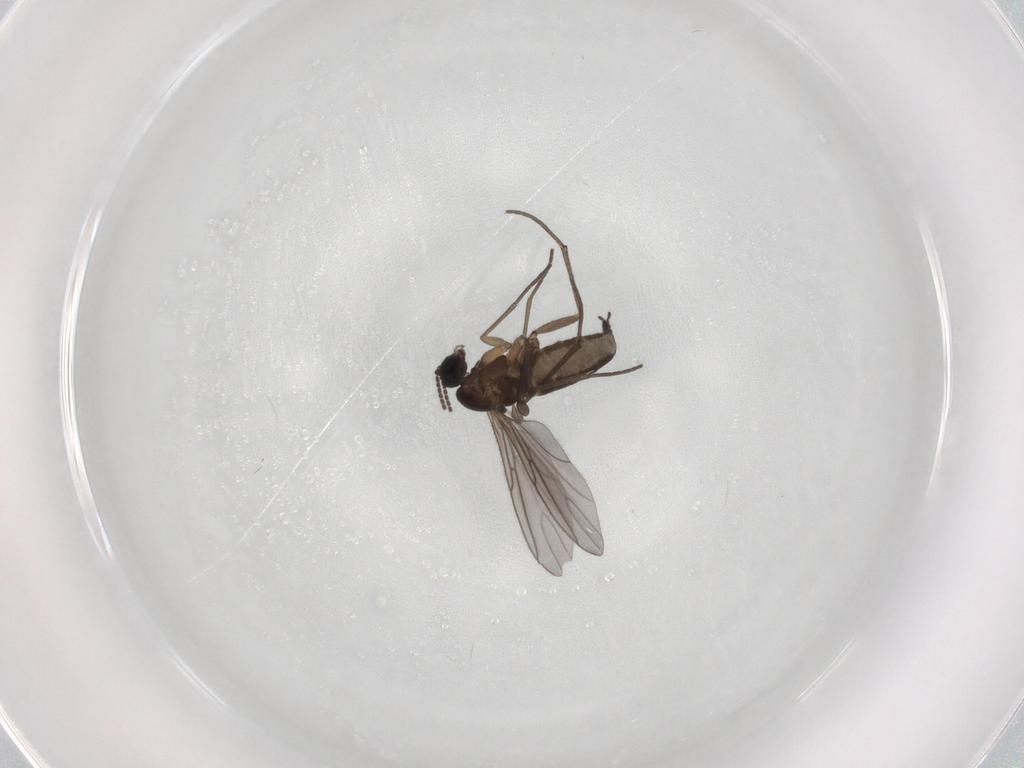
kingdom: Animalia
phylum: Arthropoda
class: Insecta
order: Diptera
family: Sciaridae
